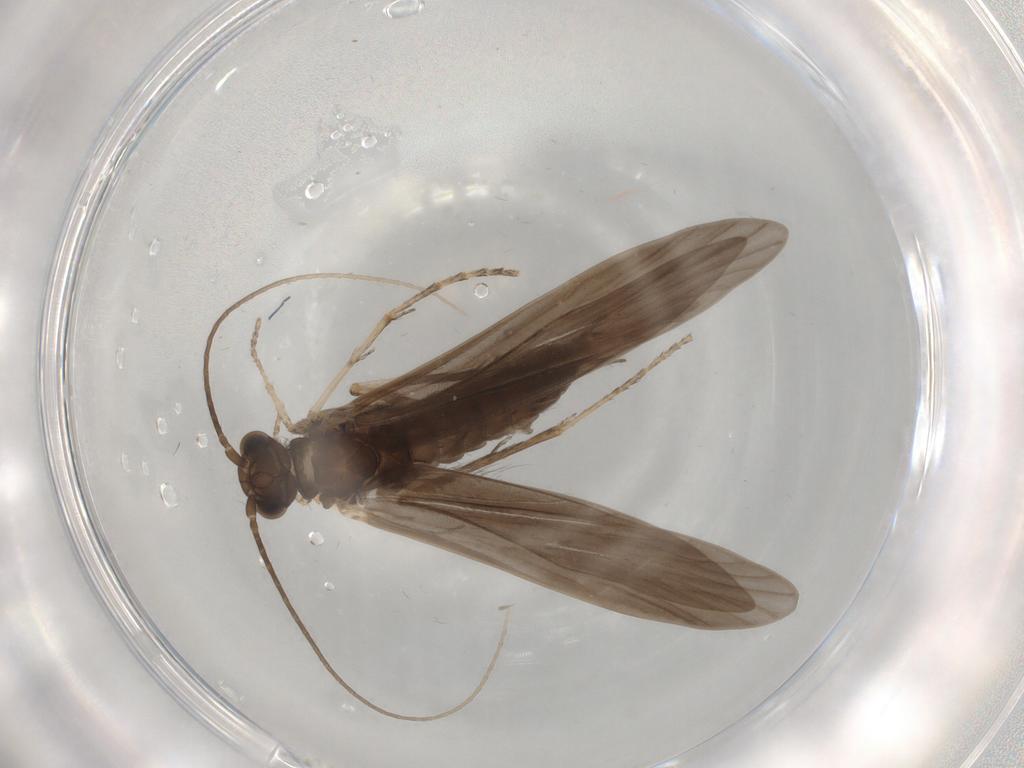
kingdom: Animalia
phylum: Arthropoda
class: Insecta
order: Trichoptera
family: Xiphocentronidae
